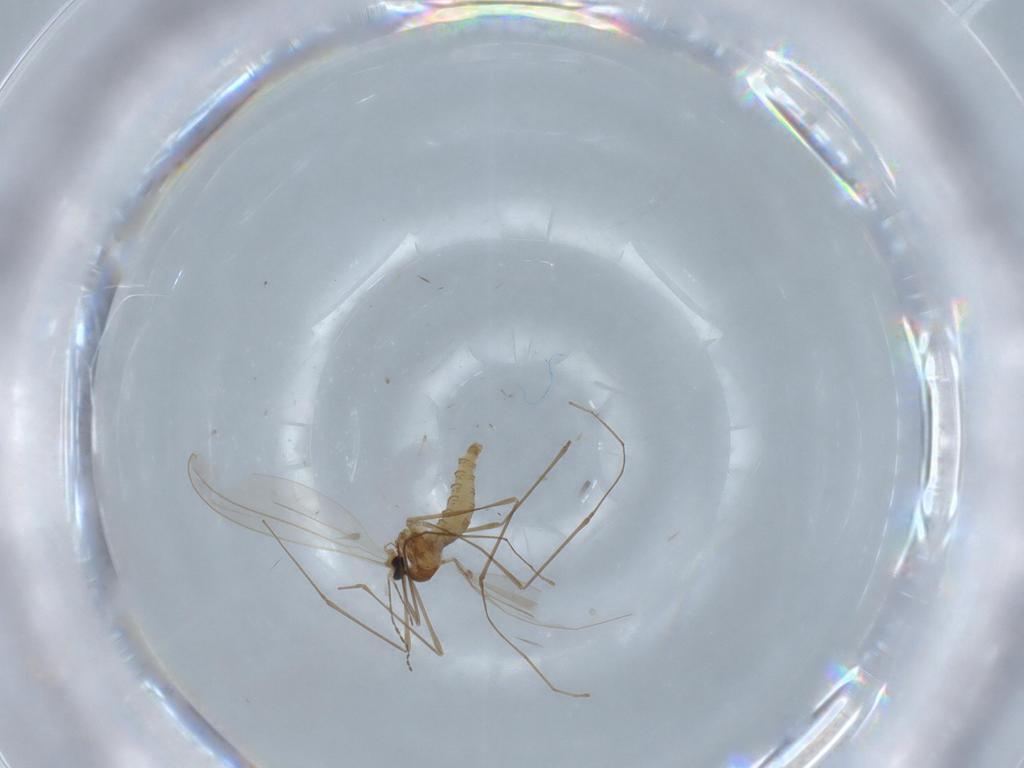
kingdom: Animalia
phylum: Arthropoda
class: Insecta
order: Diptera
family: Cecidomyiidae
